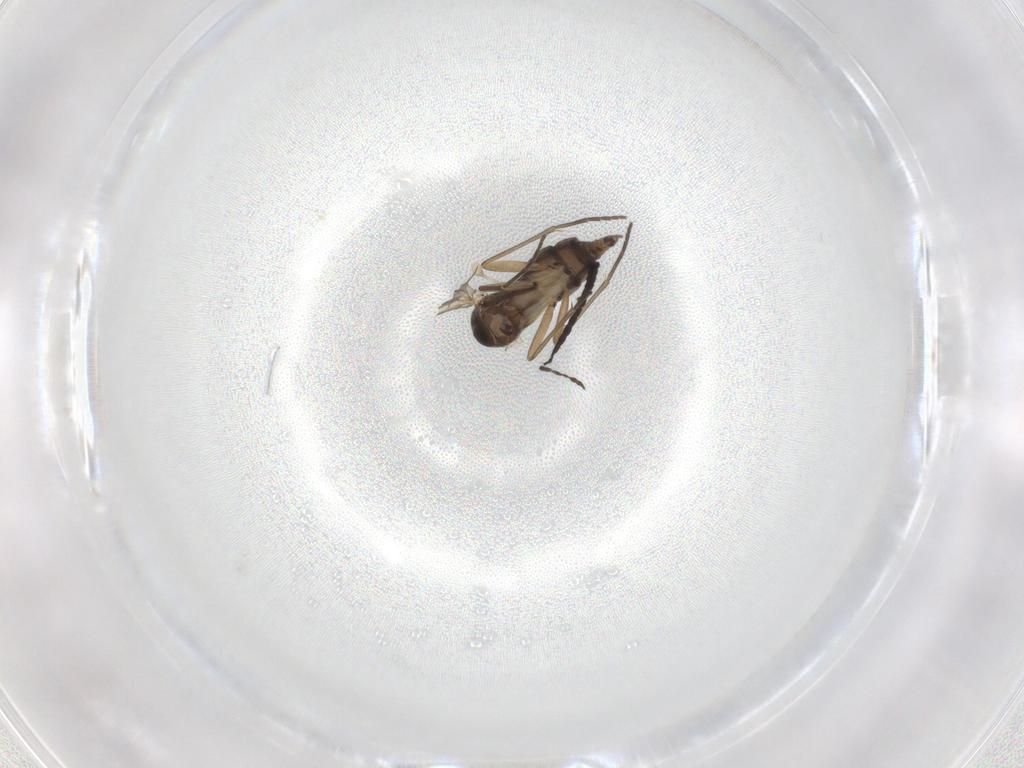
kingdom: Animalia
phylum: Arthropoda
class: Insecta
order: Diptera
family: Sciaridae
